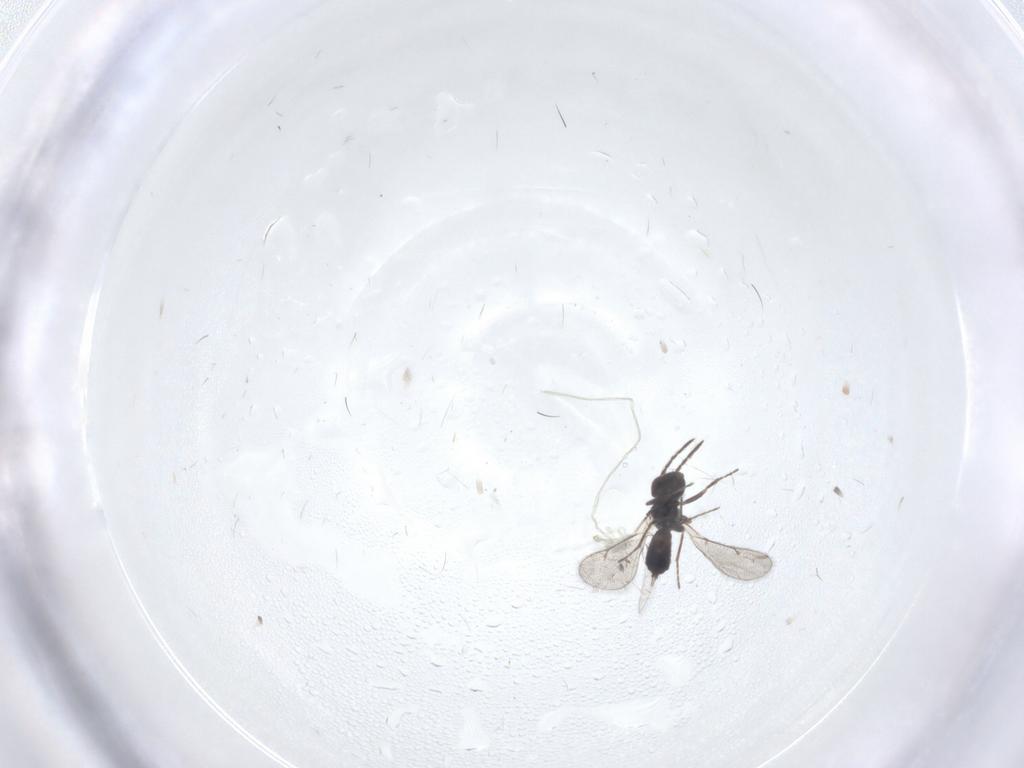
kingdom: Animalia
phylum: Arthropoda
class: Insecta
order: Hymenoptera
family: Eulophidae
